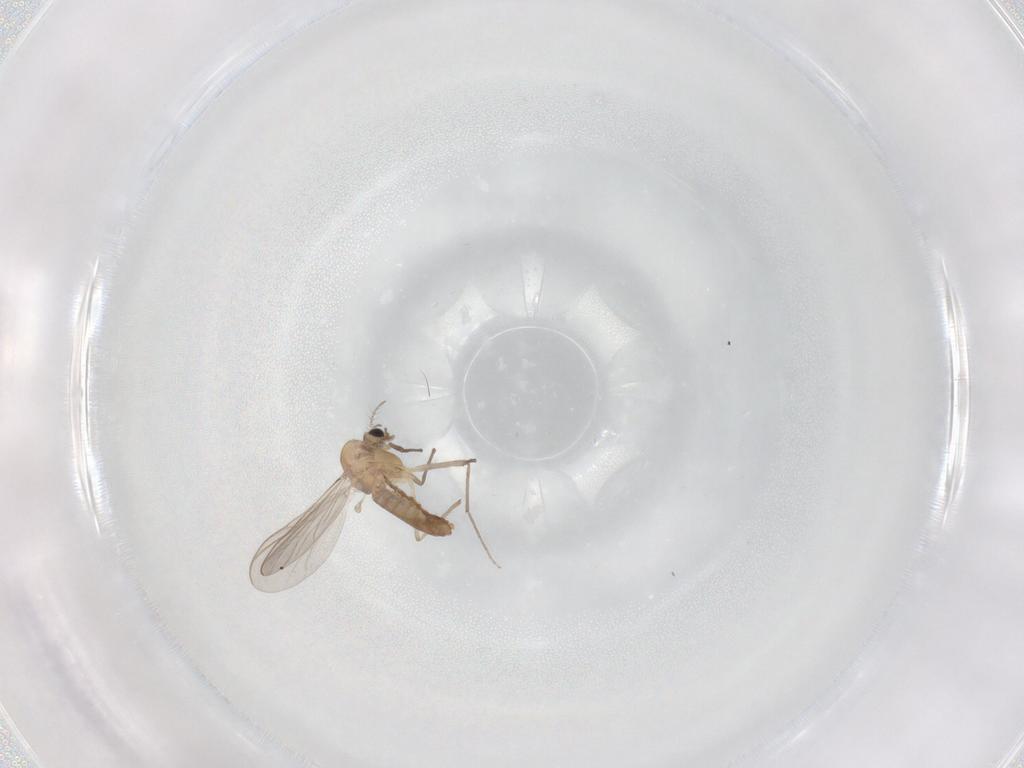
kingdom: Animalia
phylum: Arthropoda
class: Insecta
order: Diptera
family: Chironomidae
